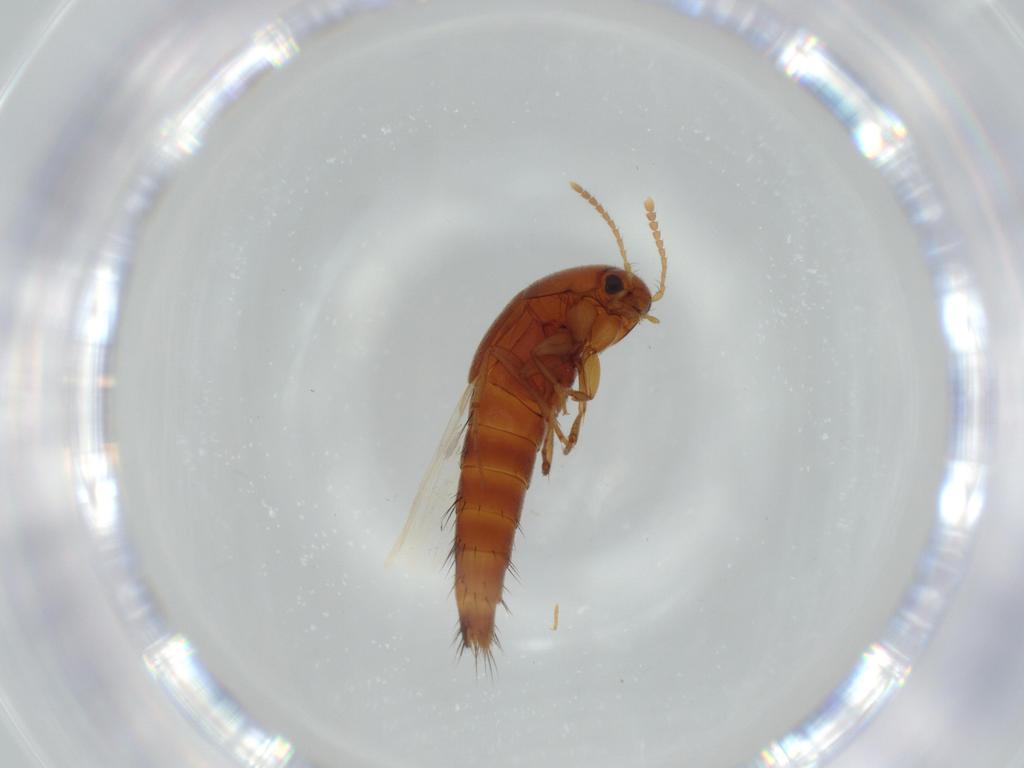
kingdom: Animalia
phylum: Arthropoda
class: Insecta
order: Coleoptera
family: Staphylinidae
